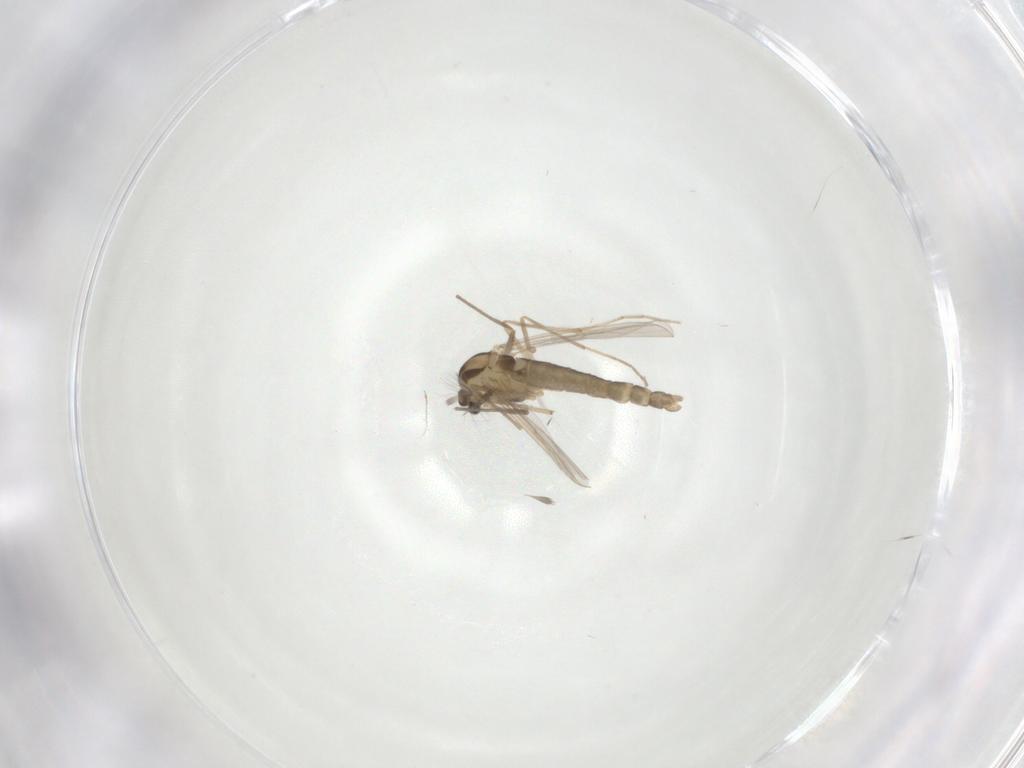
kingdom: Animalia
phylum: Arthropoda
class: Insecta
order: Diptera
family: Chironomidae
